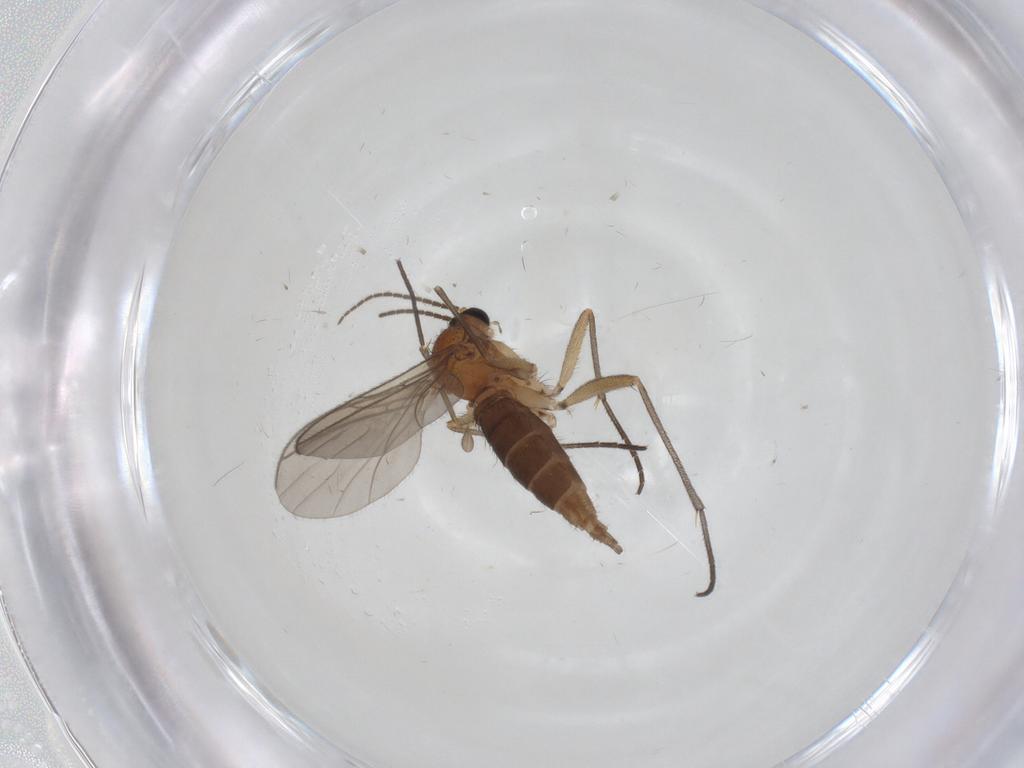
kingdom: Animalia
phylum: Arthropoda
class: Insecta
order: Diptera
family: Sciaridae
